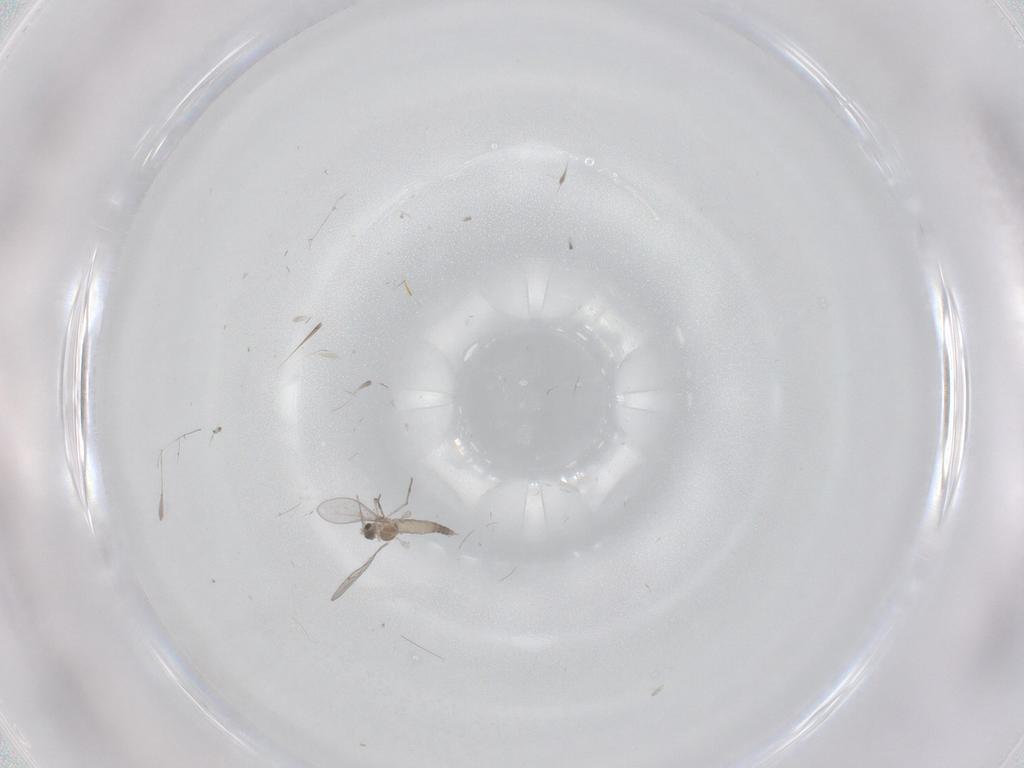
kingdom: Animalia
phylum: Arthropoda
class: Insecta
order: Diptera
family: Cecidomyiidae
